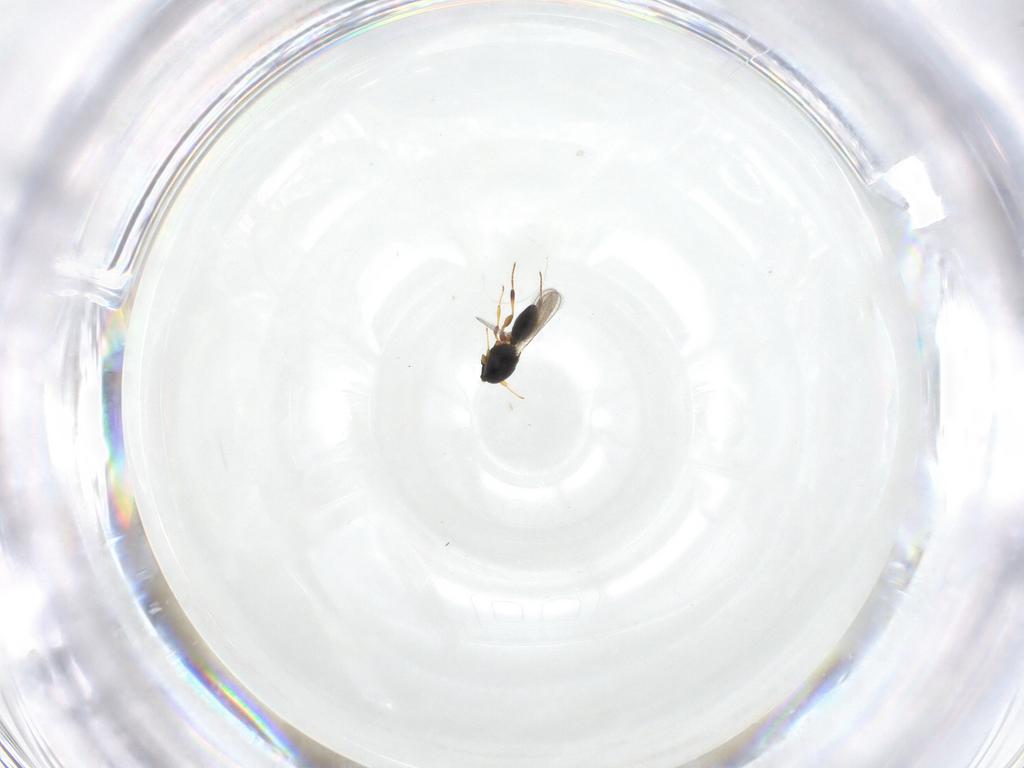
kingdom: Animalia
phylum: Arthropoda
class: Insecta
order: Hymenoptera
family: Platygastridae
